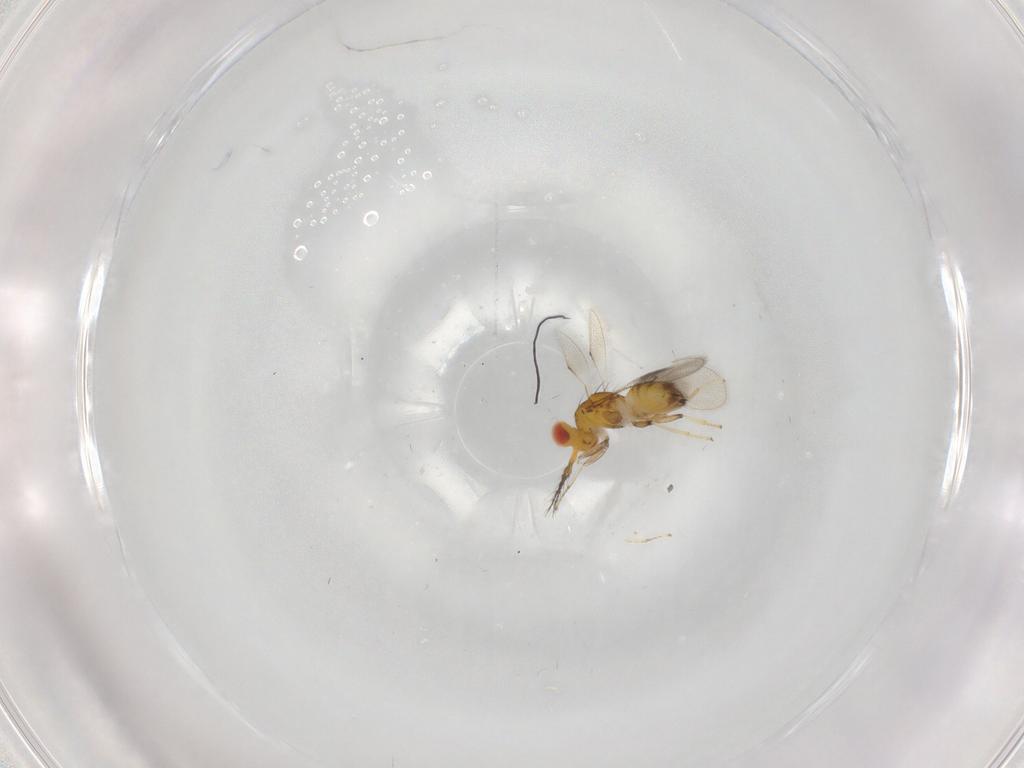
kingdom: Animalia
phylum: Arthropoda
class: Insecta
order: Hymenoptera
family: Eulophidae
